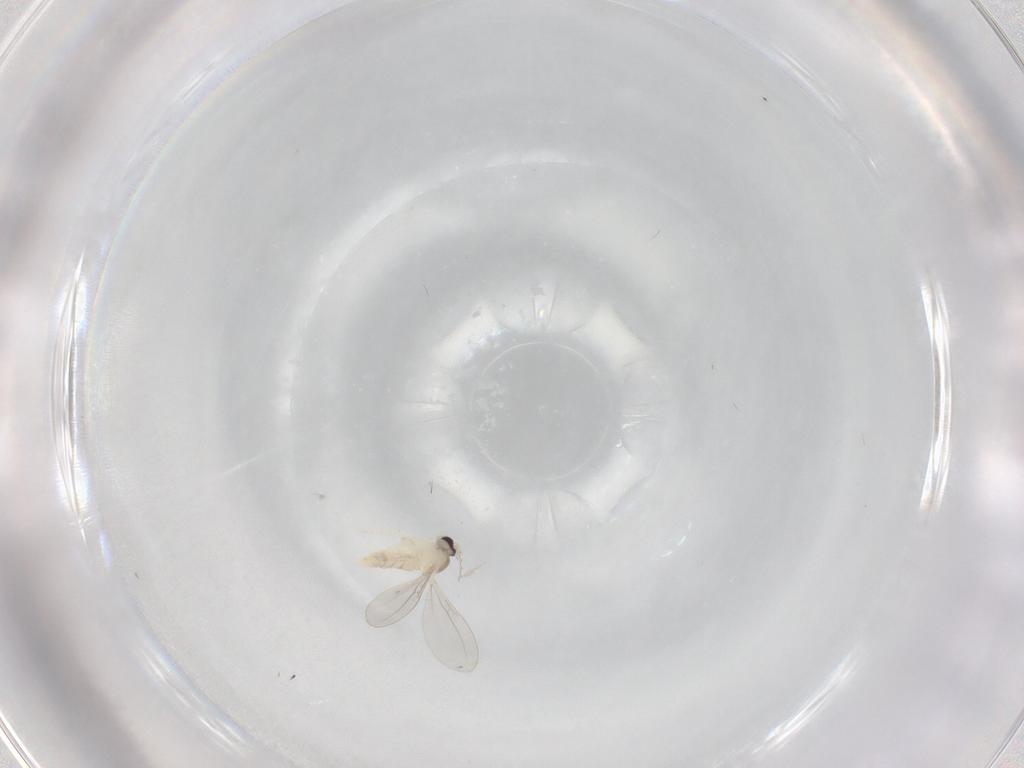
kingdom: Animalia
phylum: Arthropoda
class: Insecta
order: Diptera
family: Cecidomyiidae
